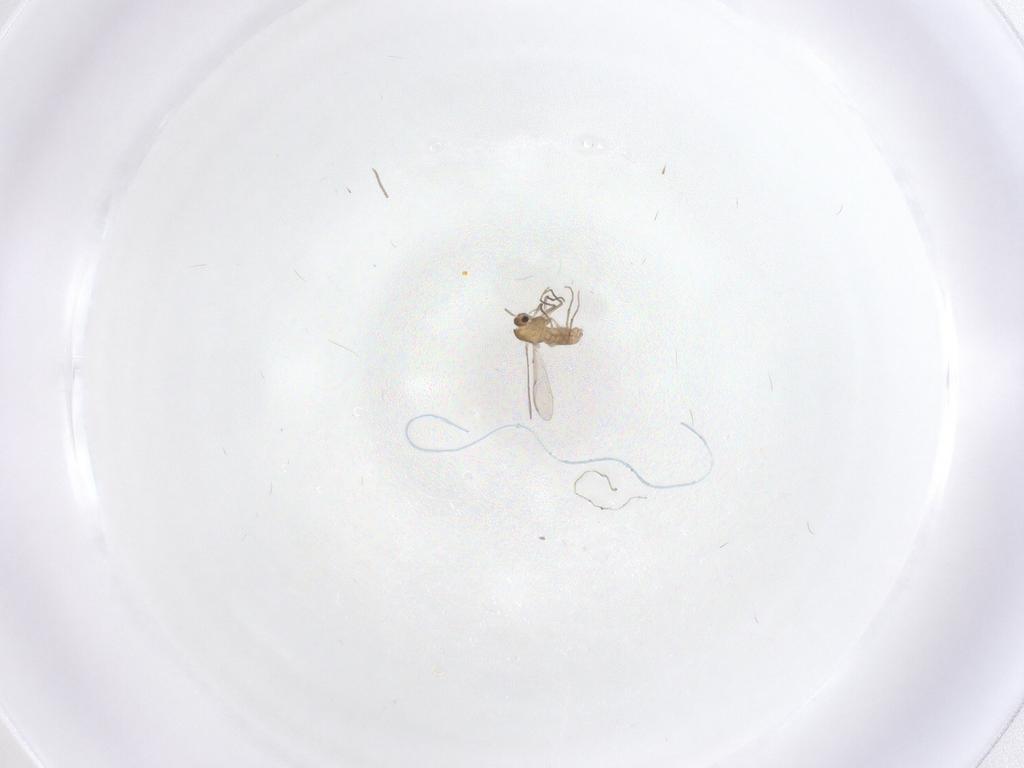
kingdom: Animalia
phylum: Arthropoda
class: Insecta
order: Diptera
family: Chironomidae
